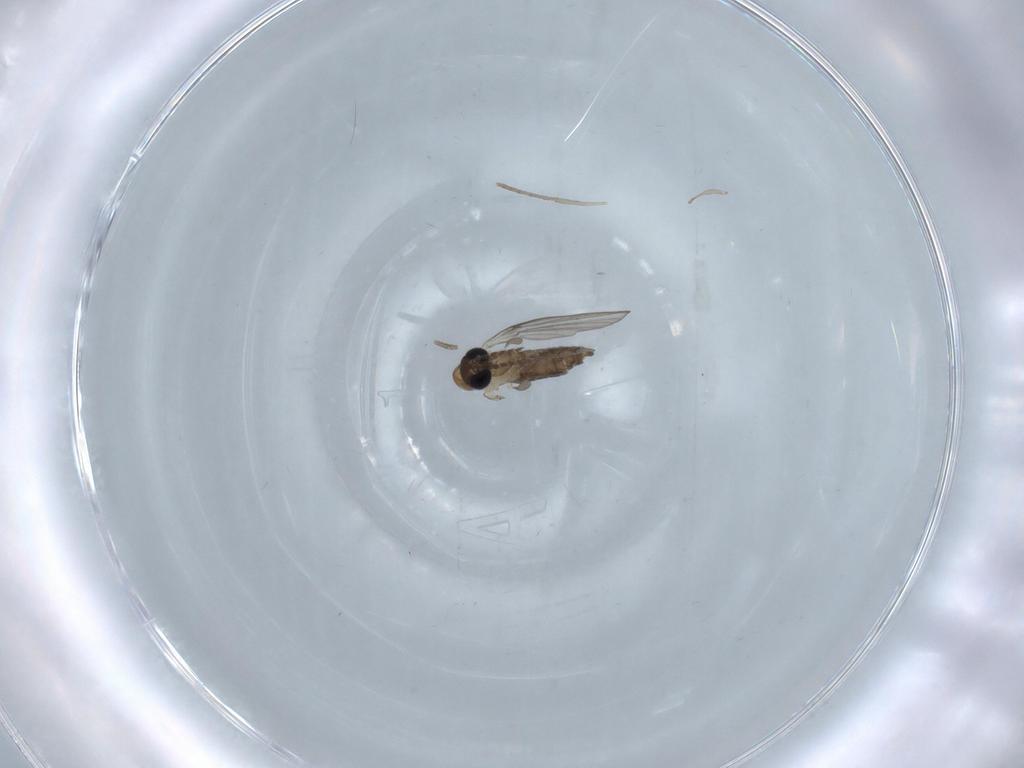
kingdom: Animalia
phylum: Arthropoda
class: Insecta
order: Diptera
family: Psychodidae
